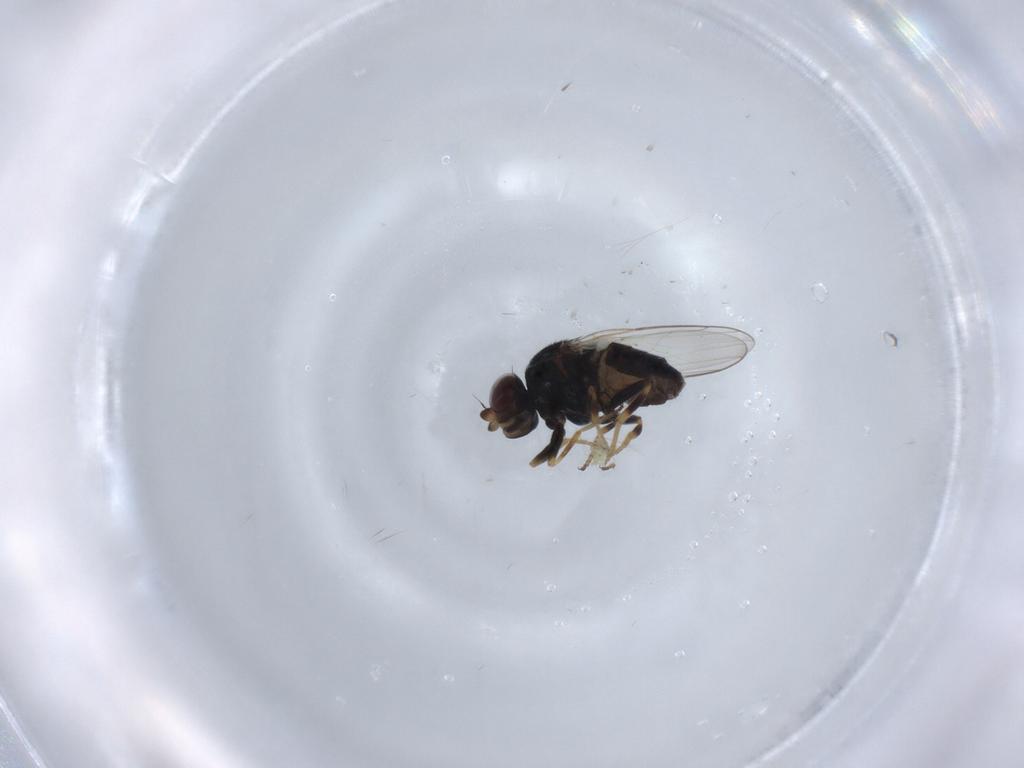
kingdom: Animalia
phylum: Arthropoda
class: Insecta
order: Diptera
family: Chloropidae
